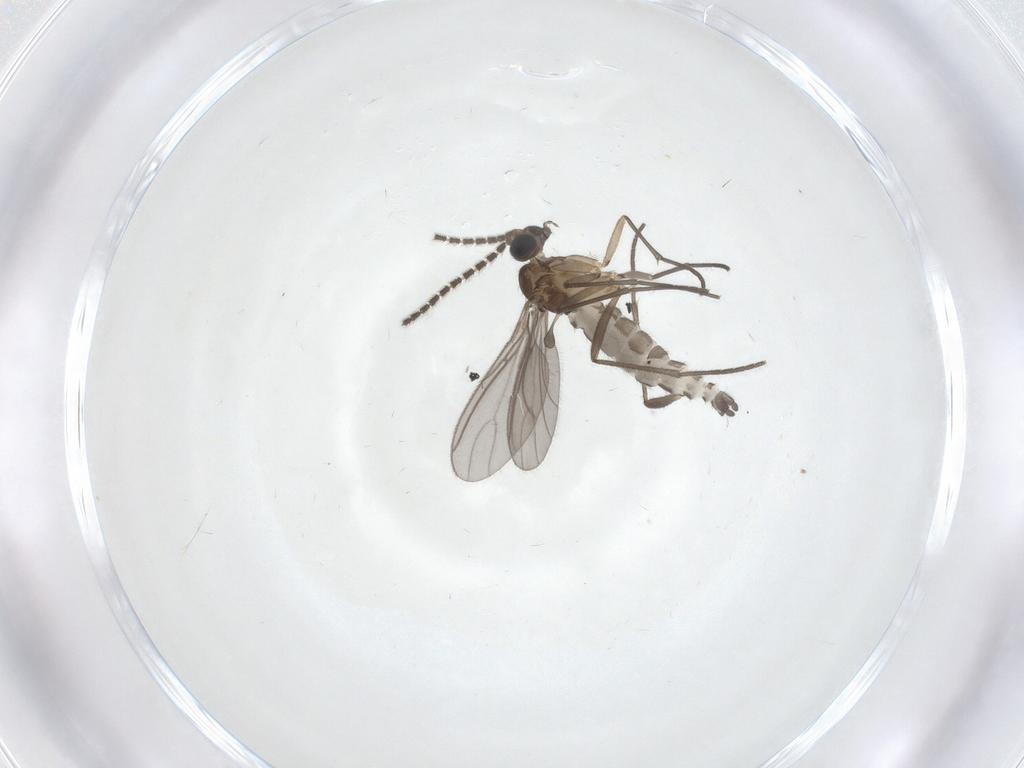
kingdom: Animalia
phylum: Arthropoda
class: Insecta
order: Diptera
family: Sciaridae
